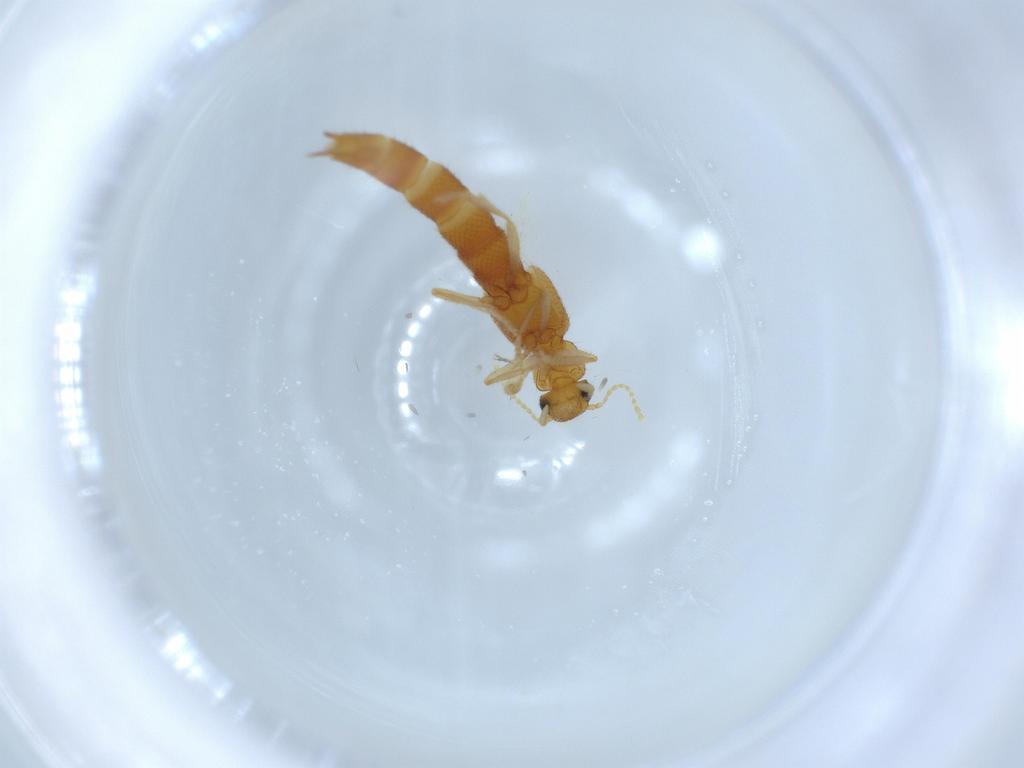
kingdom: Animalia
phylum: Arthropoda
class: Insecta
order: Coleoptera
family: Staphylinidae
